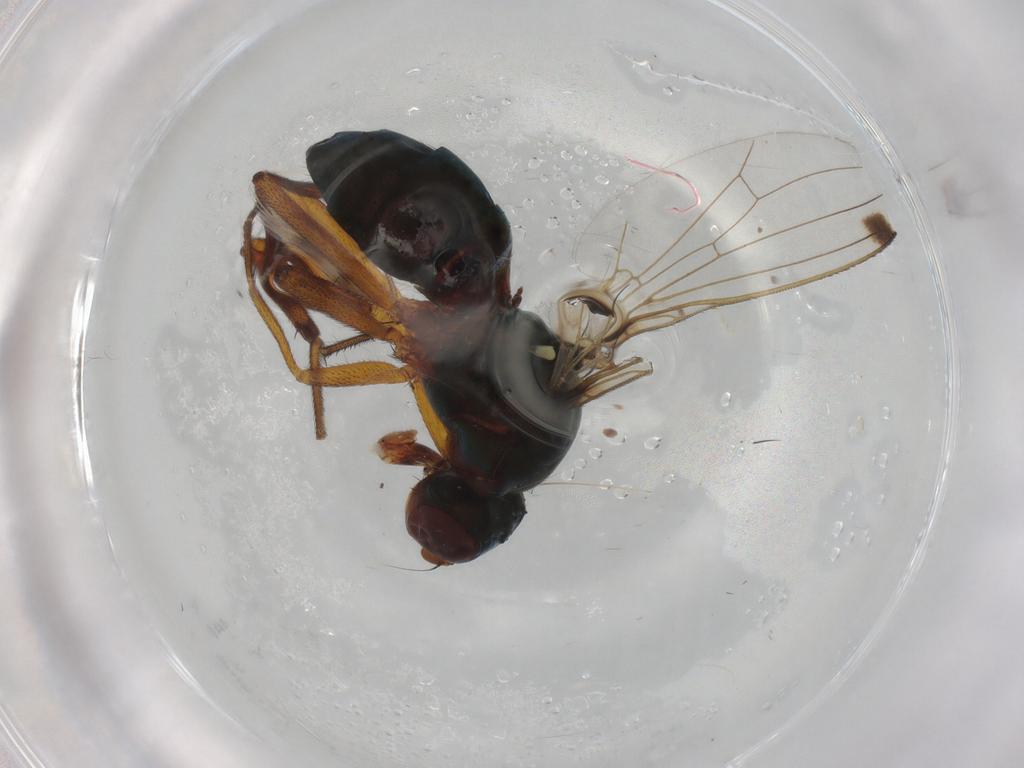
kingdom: Animalia
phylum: Arthropoda
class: Insecta
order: Diptera
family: Sepsidae
